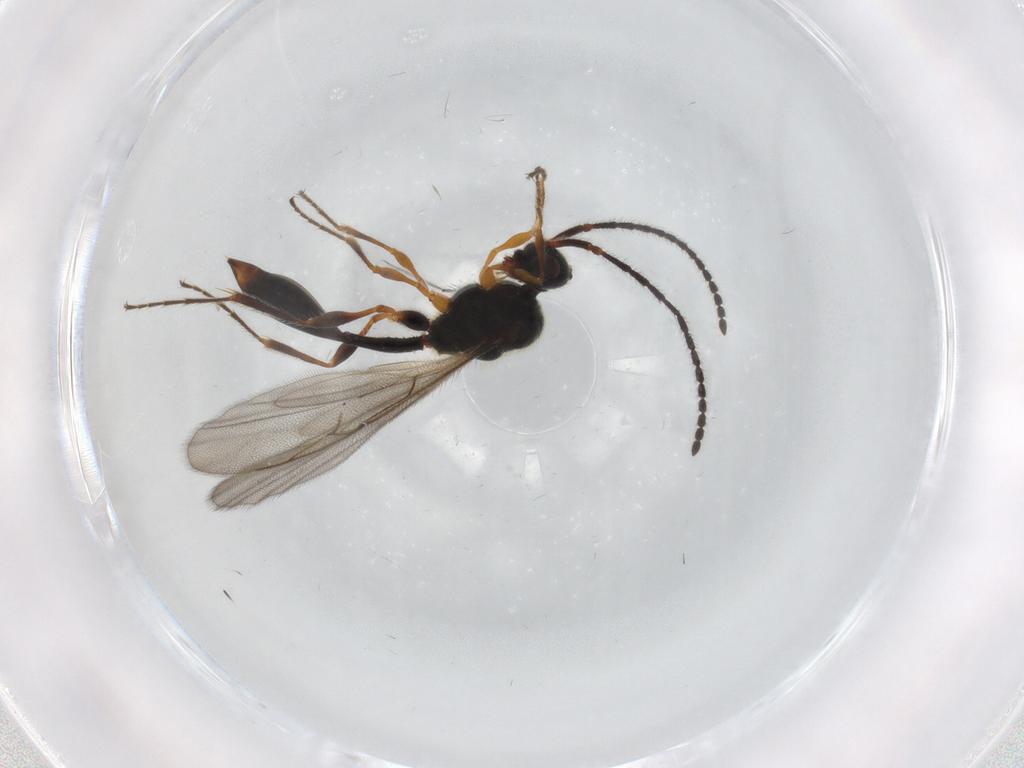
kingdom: Animalia
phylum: Arthropoda
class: Insecta
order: Hymenoptera
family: Diapriidae
